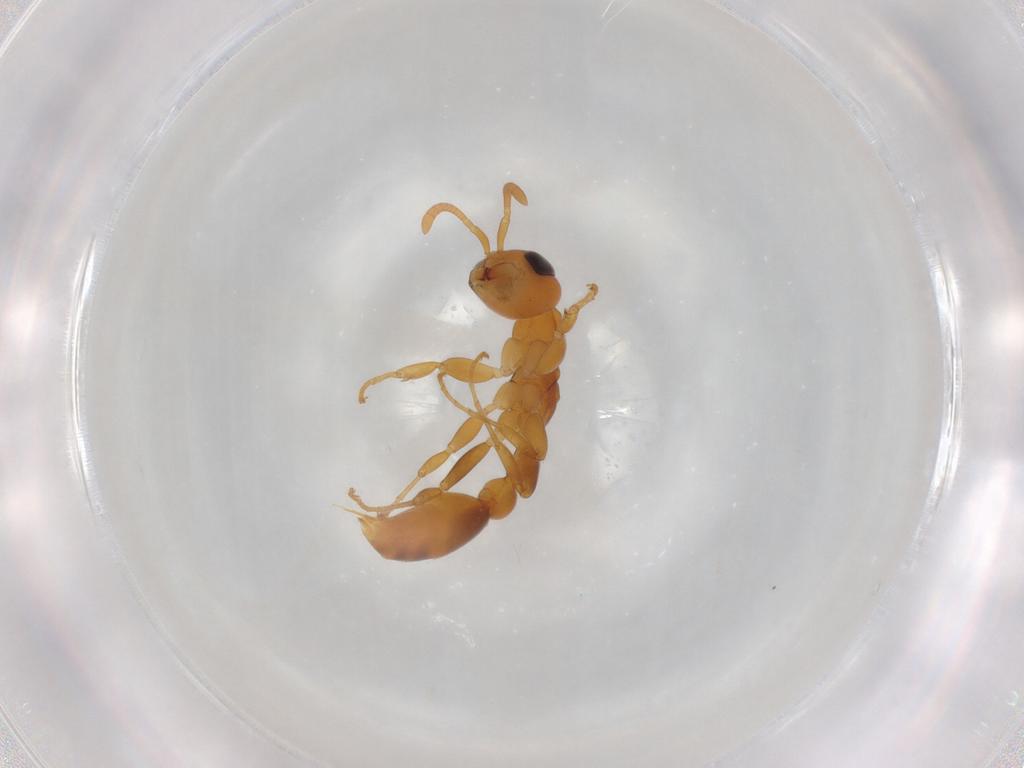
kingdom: Animalia
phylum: Arthropoda
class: Insecta
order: Hymenoptera
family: Formicidae
